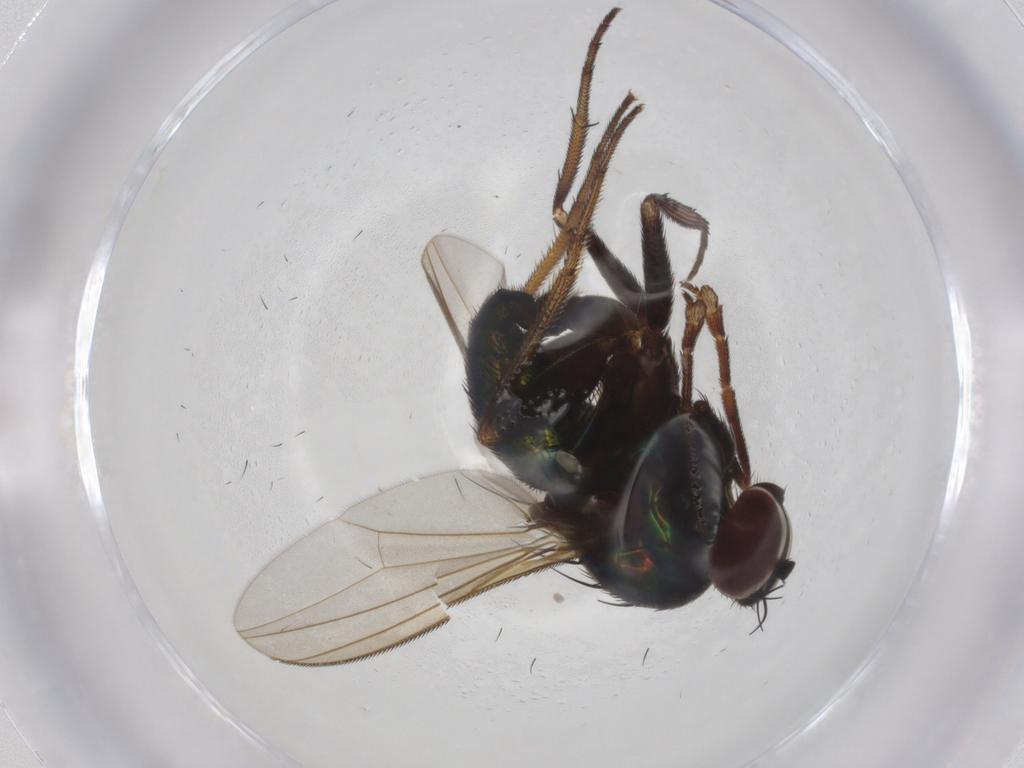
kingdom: Animalia
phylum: Arthropoda
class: Insecta
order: Diptera
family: Dolichopodidae
